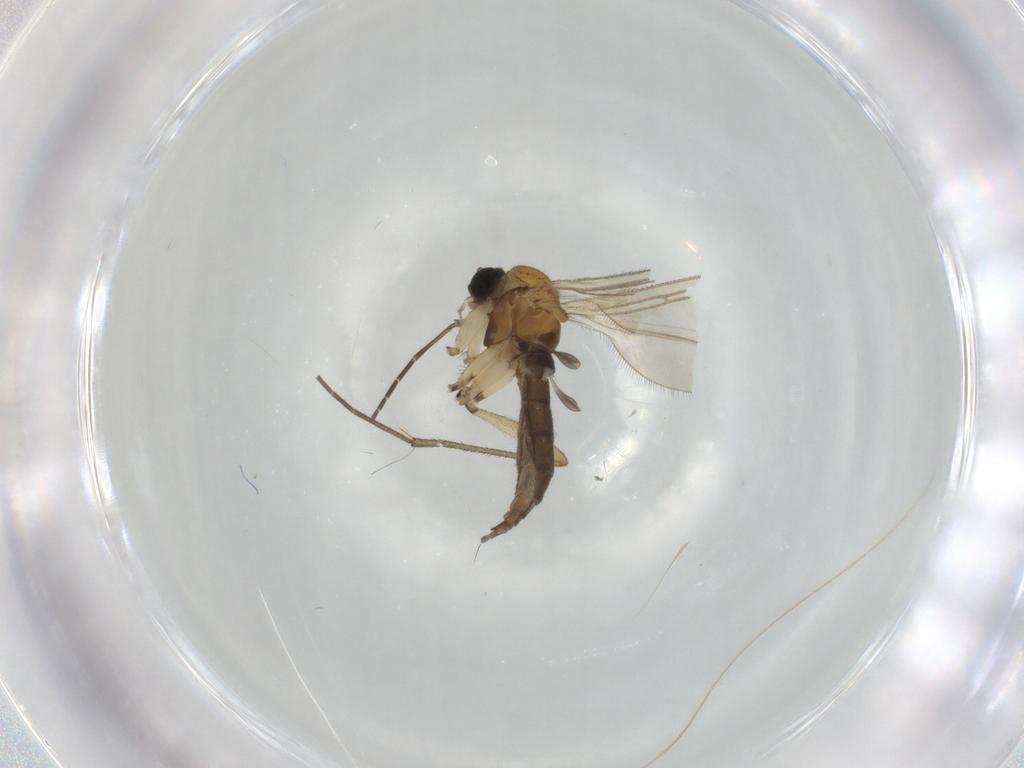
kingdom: Animalia
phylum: Arthropoda
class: Insecta
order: Diptera
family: Sciaridae
